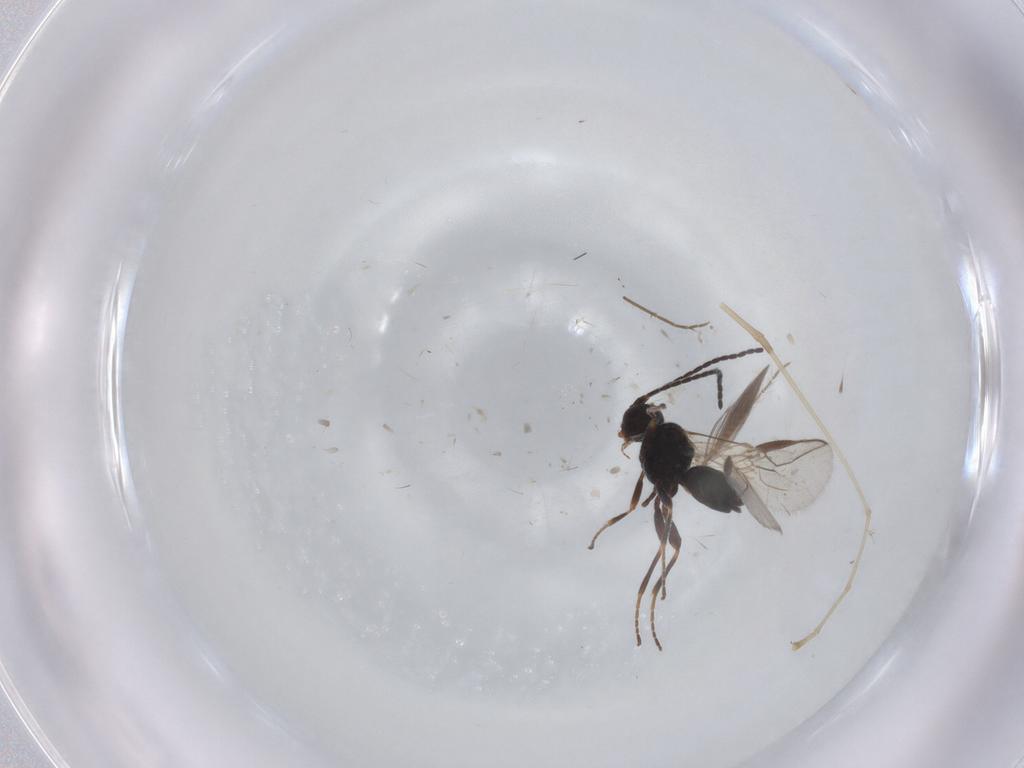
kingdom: Animalia
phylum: Arthropoda
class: Insecta
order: Hymenoptera
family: Braconidae
